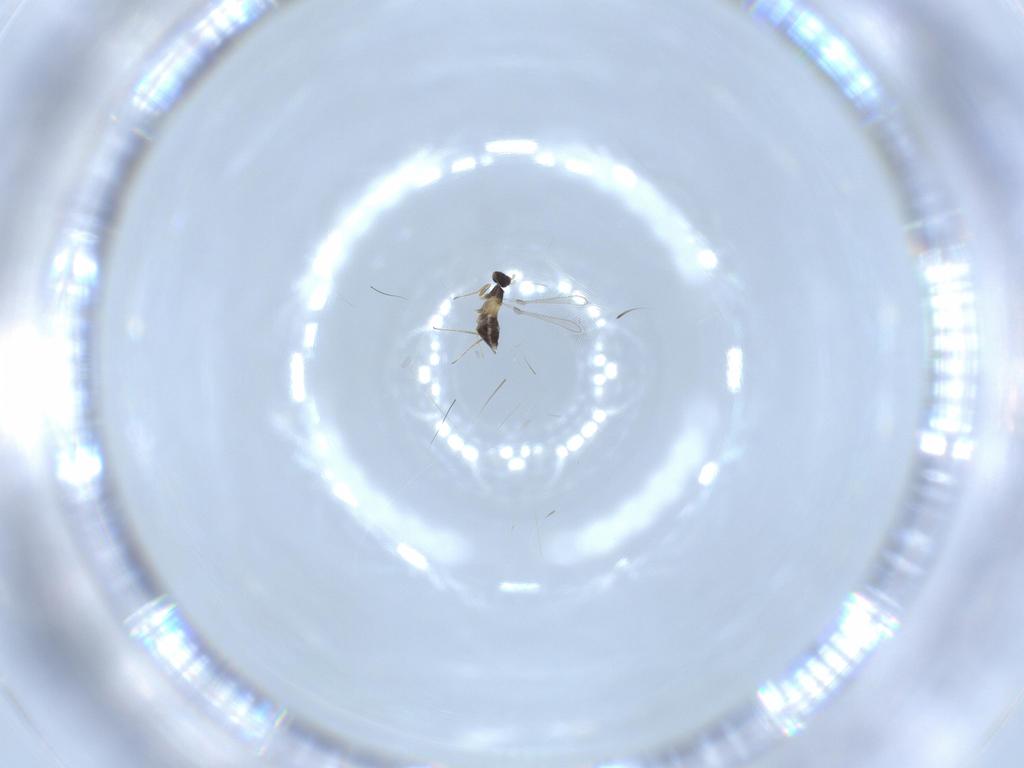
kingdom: Animalia
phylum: Arthropoda
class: Insecta
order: Hymenoptera
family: Mymaridae
